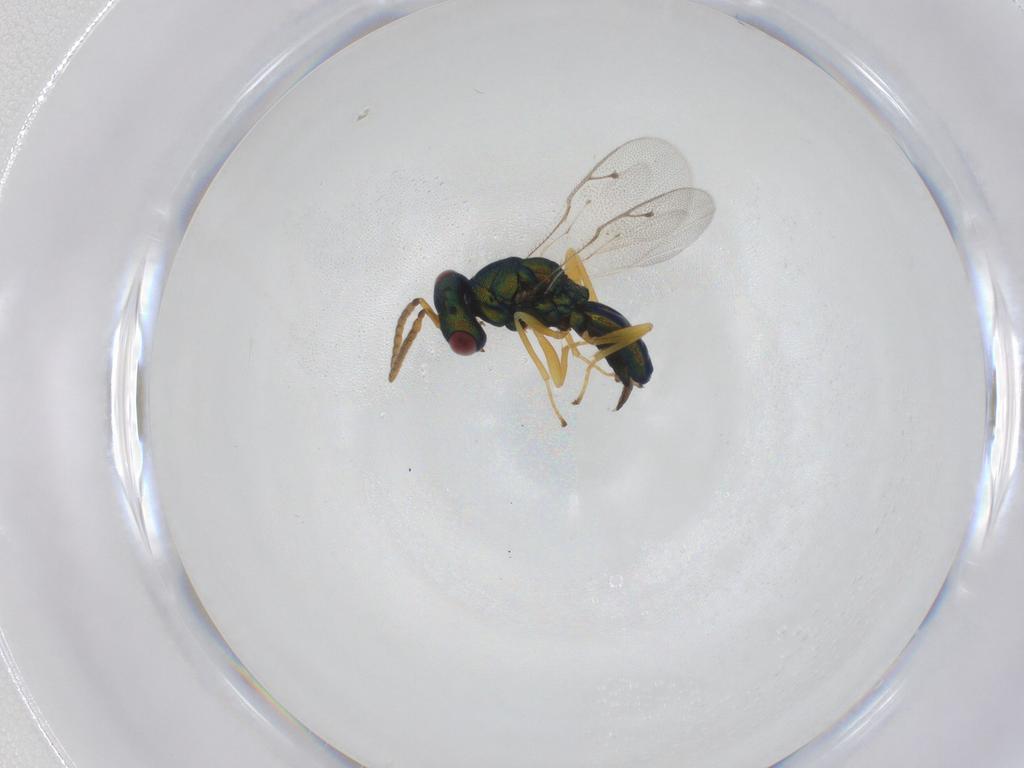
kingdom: Animalia
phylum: Arthropoda
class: Insecta
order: Hymenoptera
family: Pteromalidae
